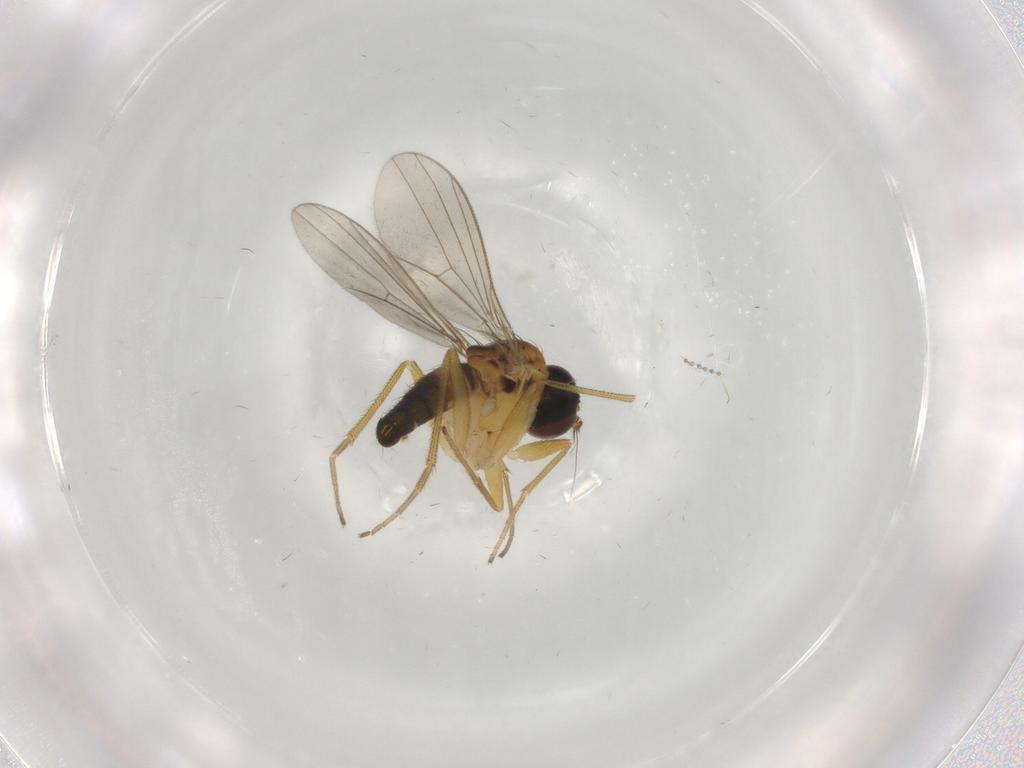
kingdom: Animalia
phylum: Arthropoda
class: Insecta
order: Diptera
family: Dolichopodidae
